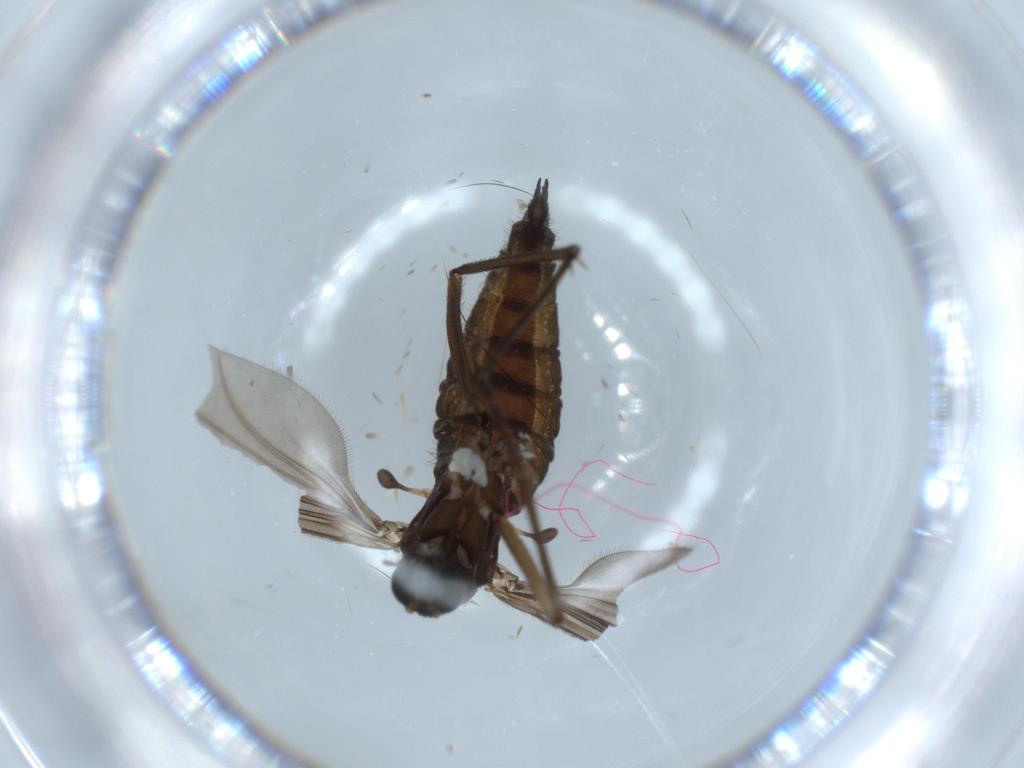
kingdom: Animalia
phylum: Arthropoda
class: Insecta
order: Diptera
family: Sciaridae
